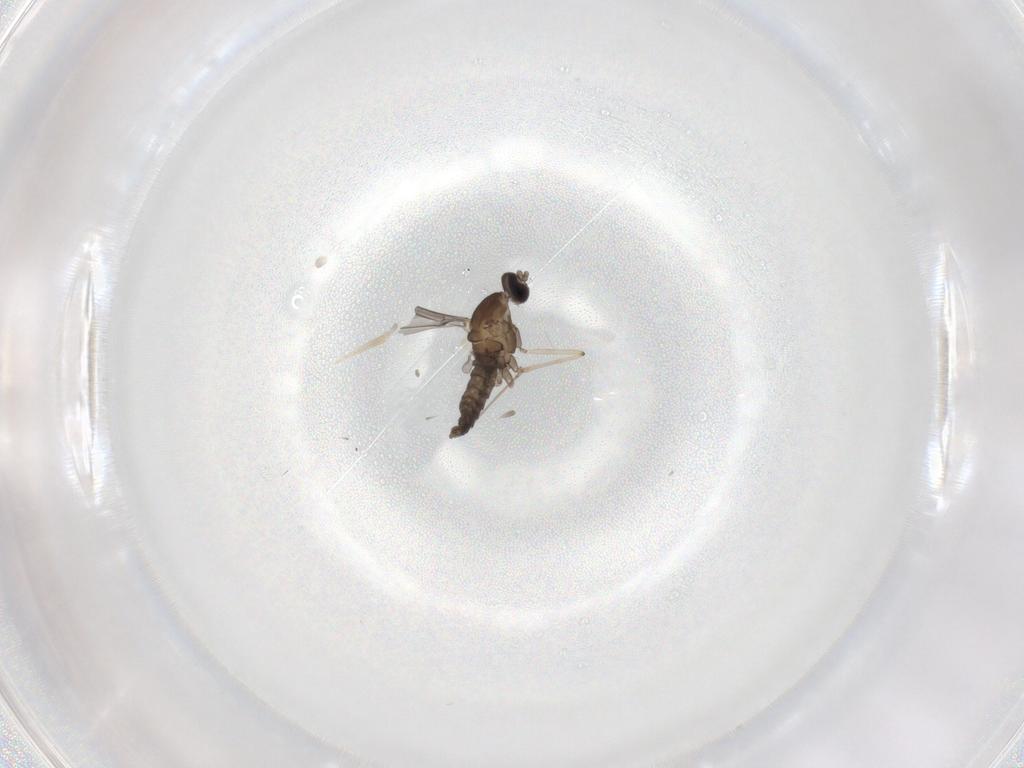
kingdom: Animalia
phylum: Arthropoda
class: Insecta
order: Diptera
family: Cecidomyiidae
